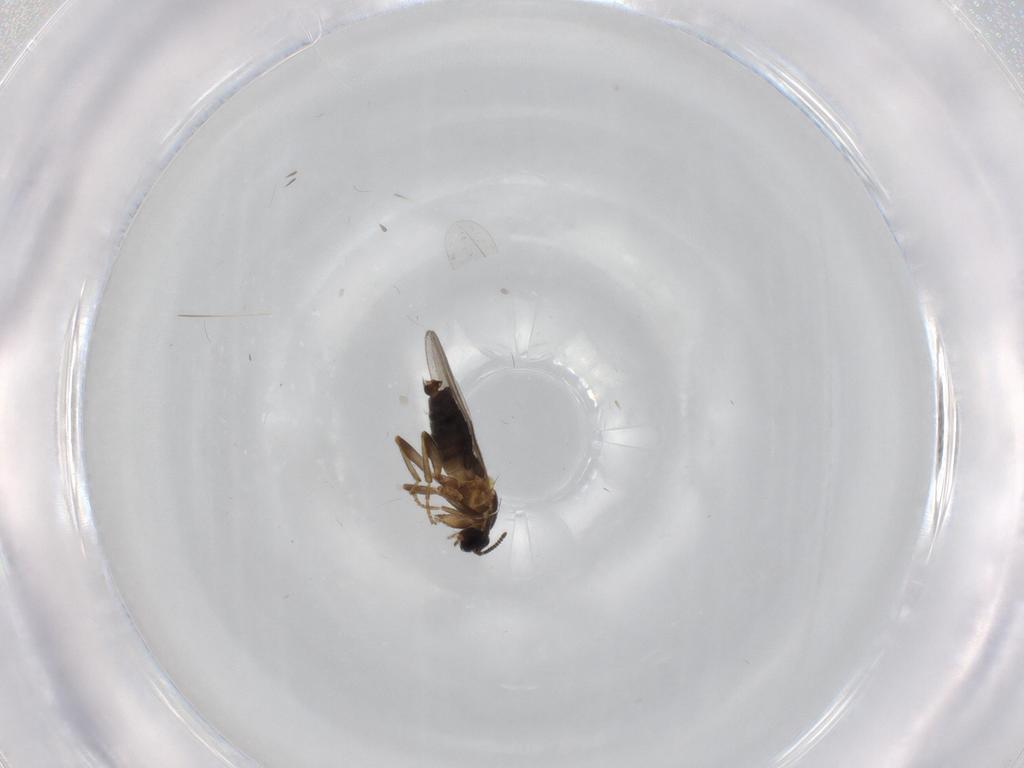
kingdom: Animalia
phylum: Arthropoda
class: Insecta
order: Diptera
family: Scatopsidae
